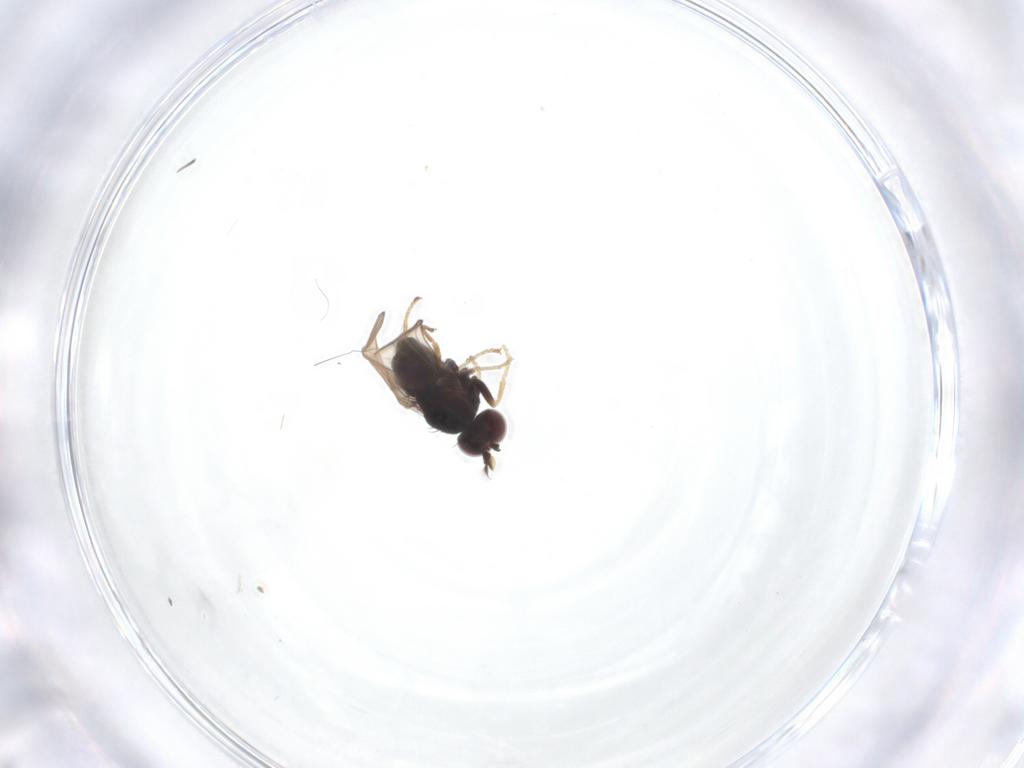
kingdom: Animalia
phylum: Arthropoda
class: Insecta
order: Diptera
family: Ephydridae
